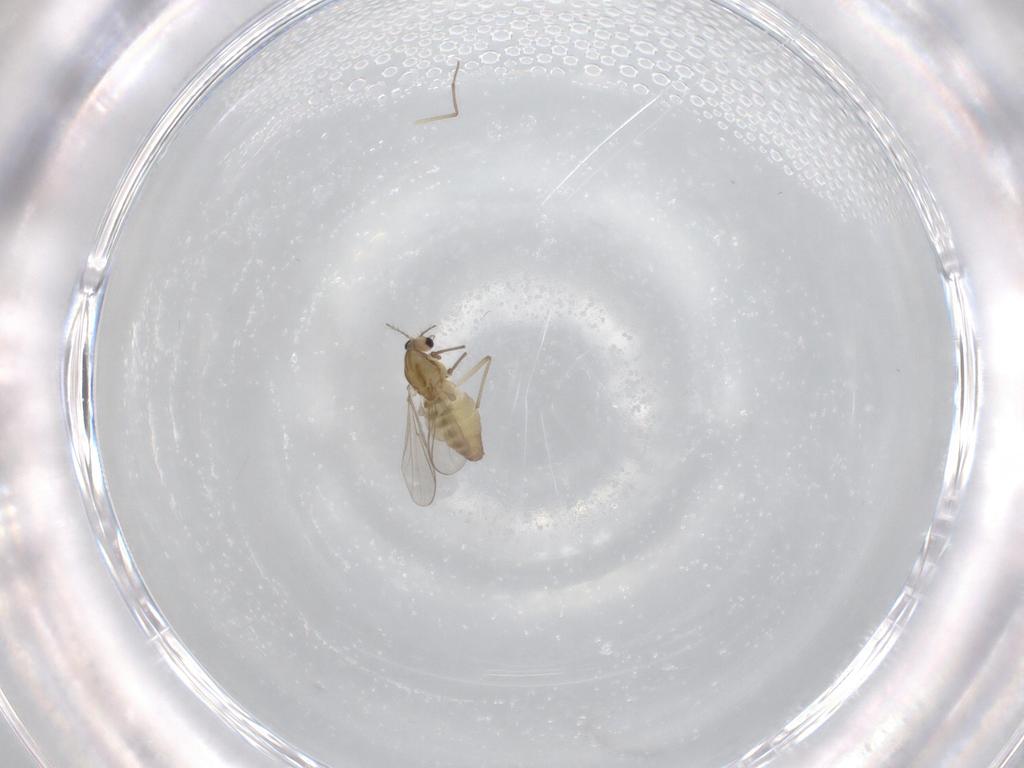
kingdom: Animalia
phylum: Arthropoda
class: Insecta
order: Diptera
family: Chironomidae
